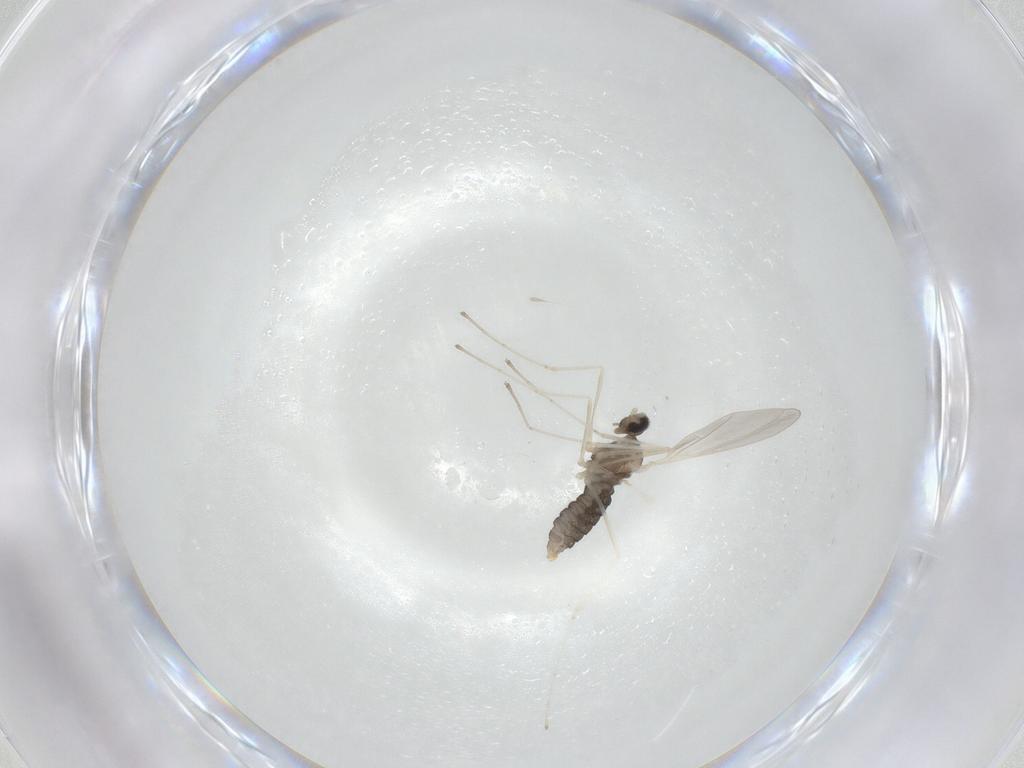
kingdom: Animalia
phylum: Arthropoda
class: Insecta
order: Diptera
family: Cecidomyiidae
